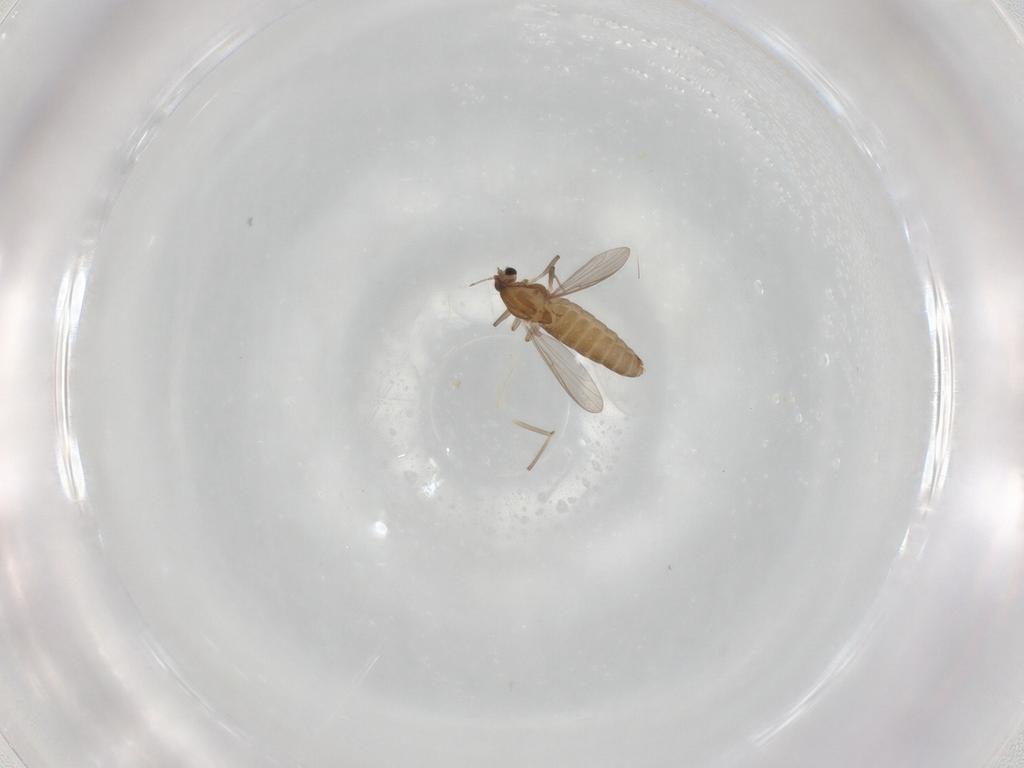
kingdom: Animalia
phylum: Arthropoda
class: Insecta
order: Diptera
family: Chironomidae
